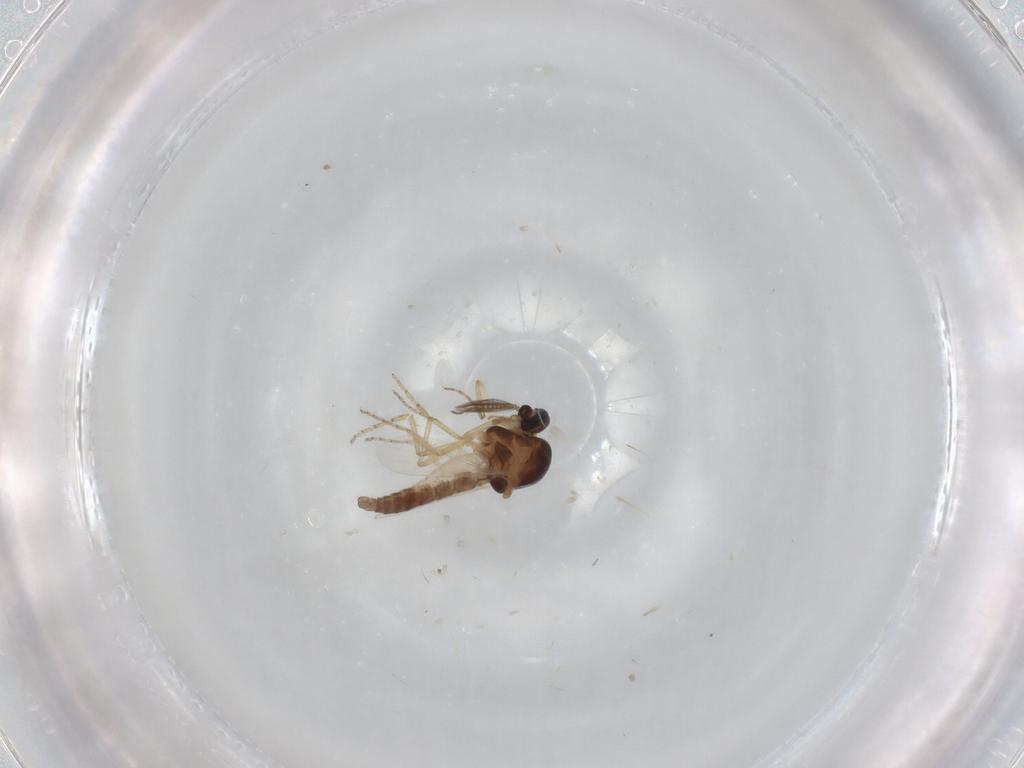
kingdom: Animalia
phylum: Arthropoda
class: Insecta
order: Diptera
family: Ceratopogonidae
